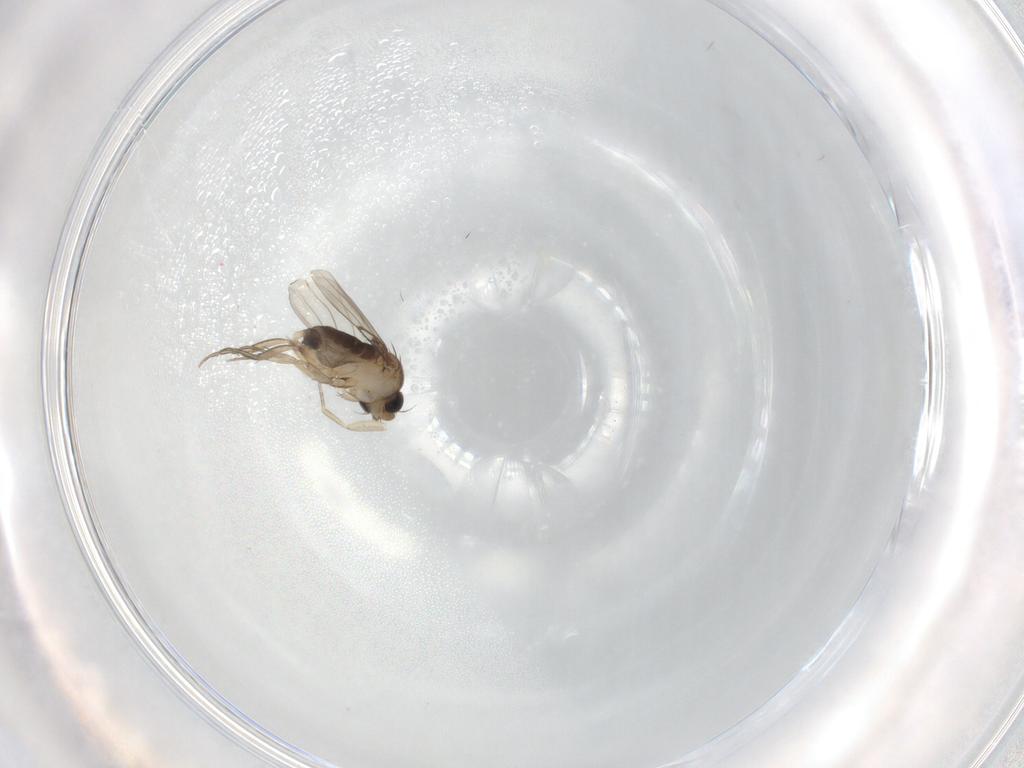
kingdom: Animalia
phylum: Arthropoda
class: Insecta
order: Diptera
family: Phoridae
